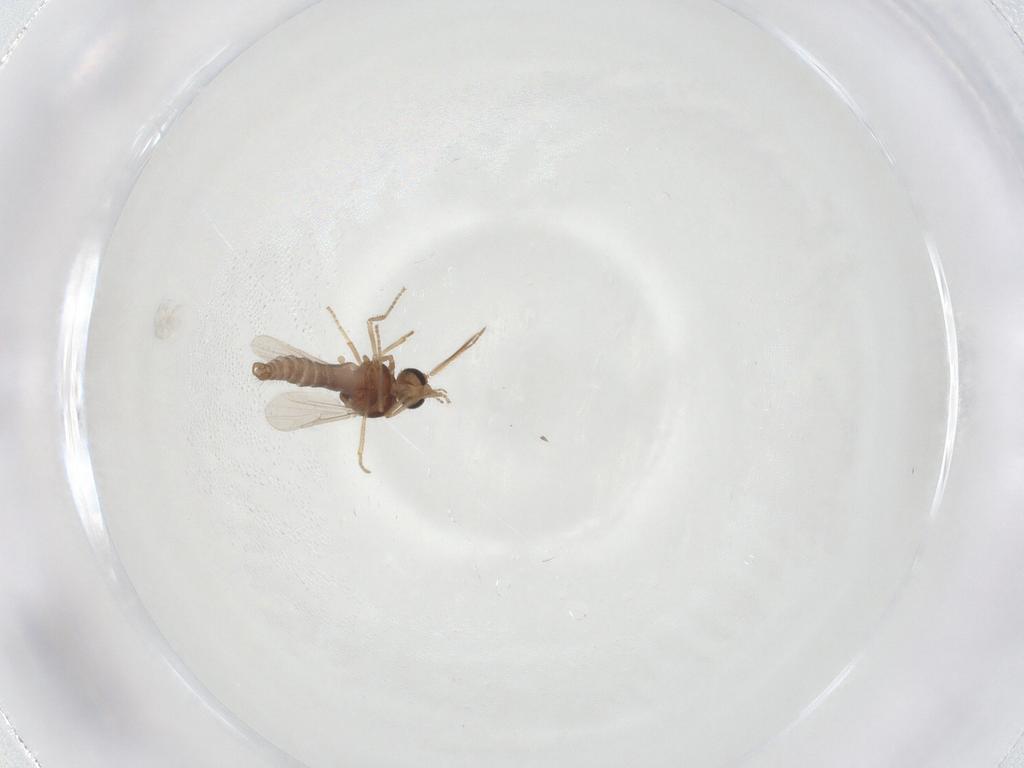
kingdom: Animalia
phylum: Arthropoda
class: Insecta
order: Diptera
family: Ceratopogonidae
